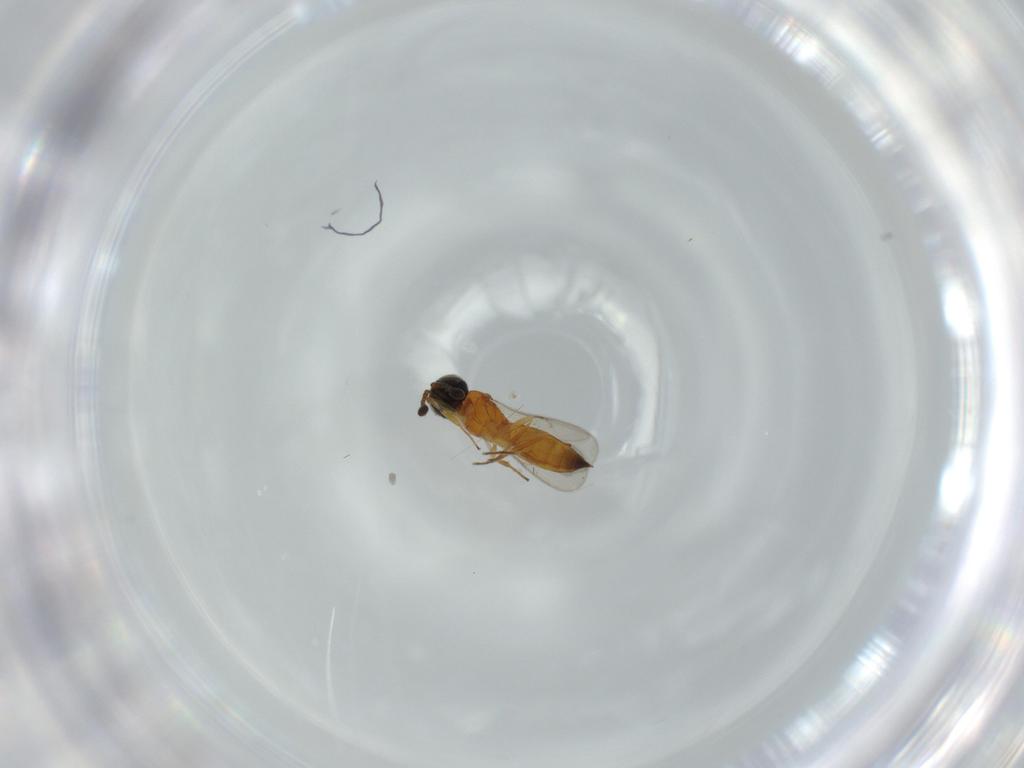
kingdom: Animalia
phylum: Arthropoda
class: Insecta
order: Hymenoptera
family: Scelionidae
